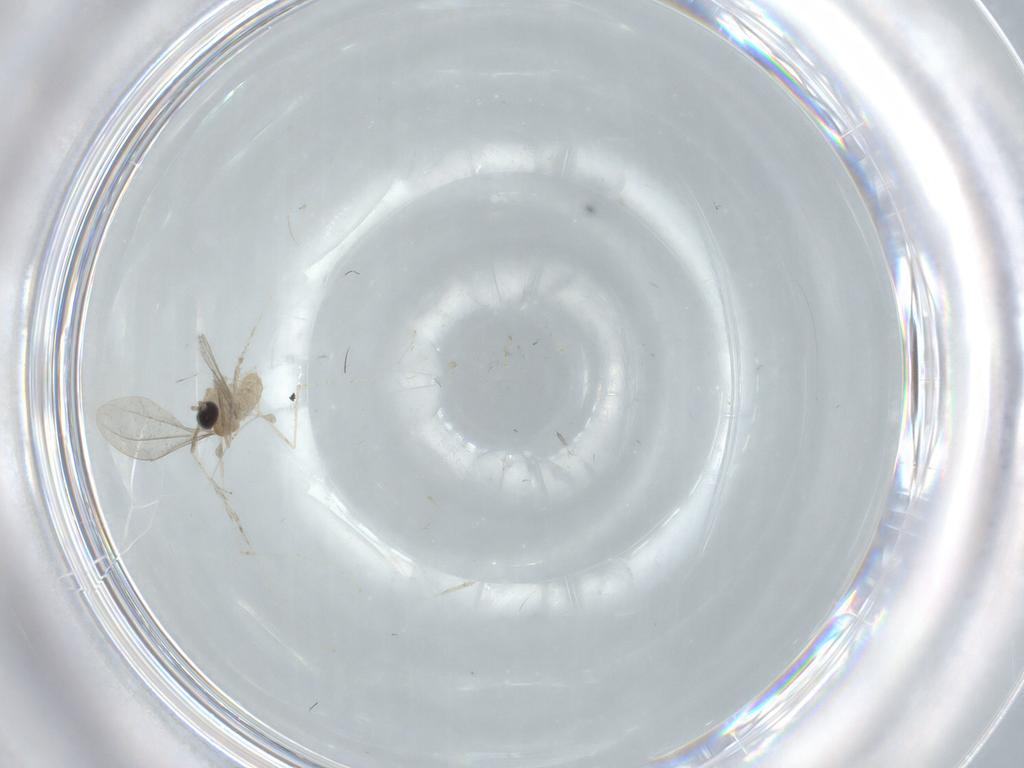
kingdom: Animalia
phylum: Arthropoda
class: Insecta
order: Diptera
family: Cecidomyiidae
